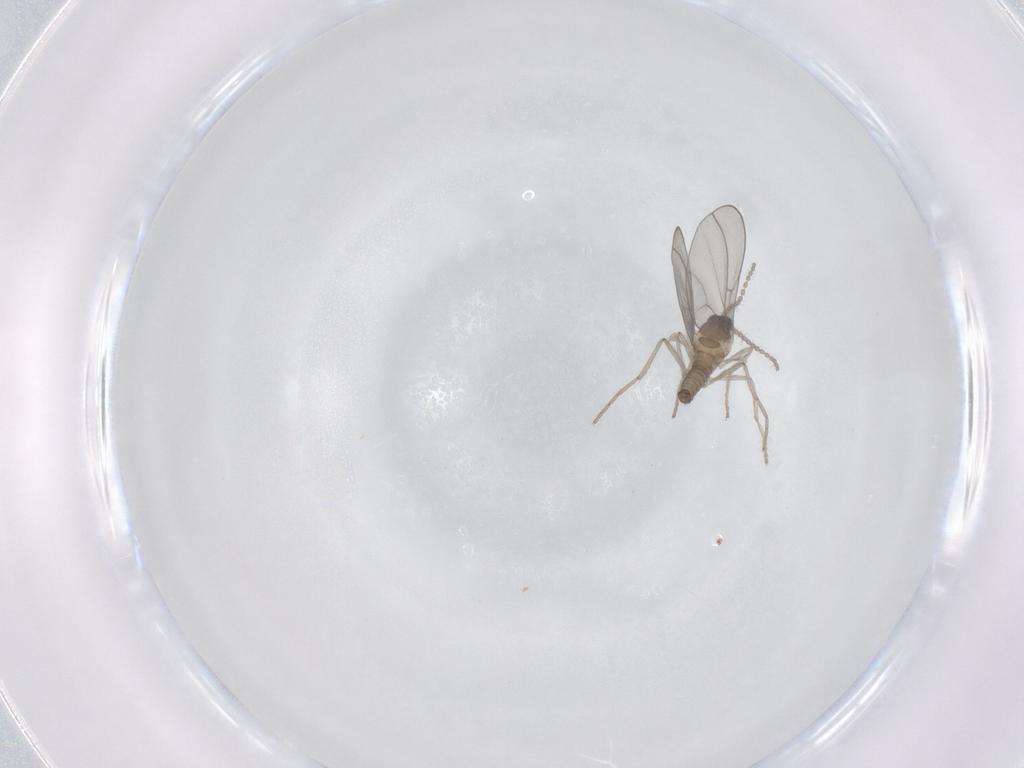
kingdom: Animalia
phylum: Arthropoda
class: Insecta
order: Diptera
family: Cecidomyiidae
